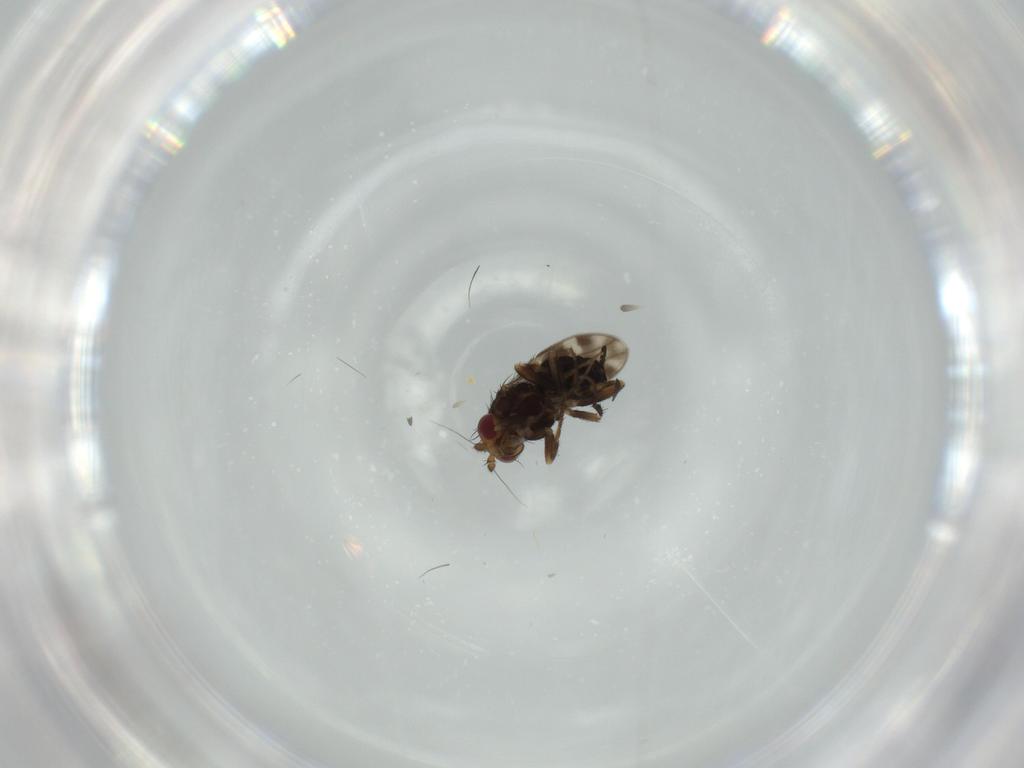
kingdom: Animalia
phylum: Arthropoda
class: Insecta
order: Diptera
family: Sphaeroceridae
